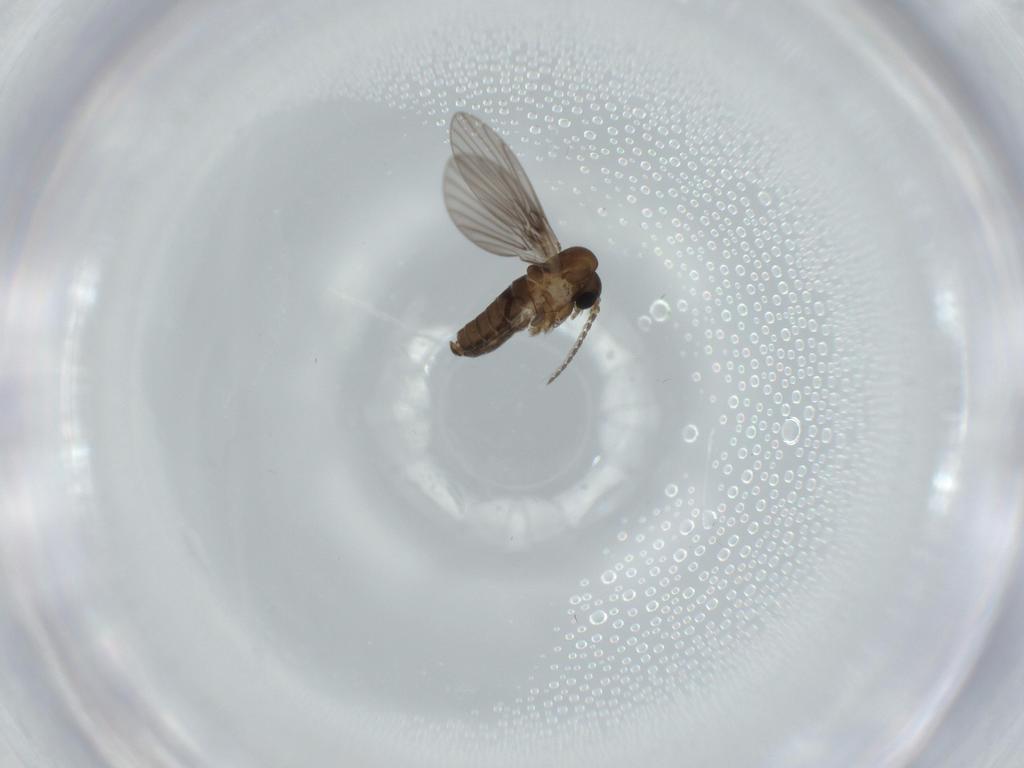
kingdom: Animalia
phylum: Arthropoda
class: Insecta
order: Diptera
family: Psychodidae
